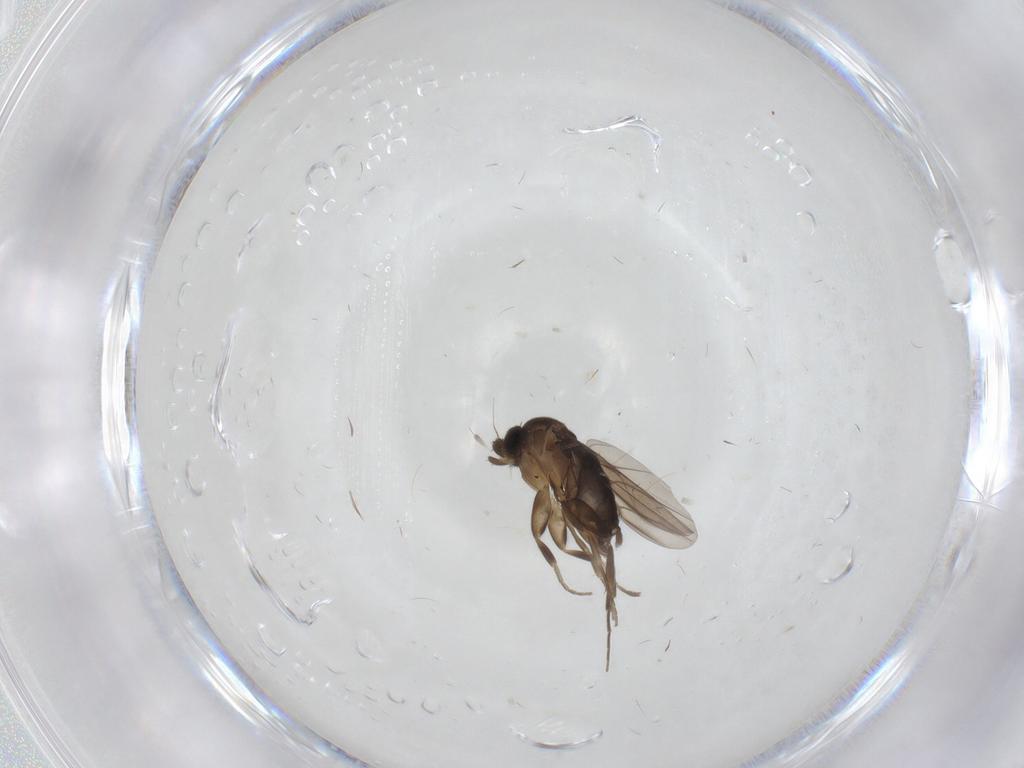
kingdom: Animalia
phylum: Arthropoda
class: Insecta
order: Diptera
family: Phoridae
